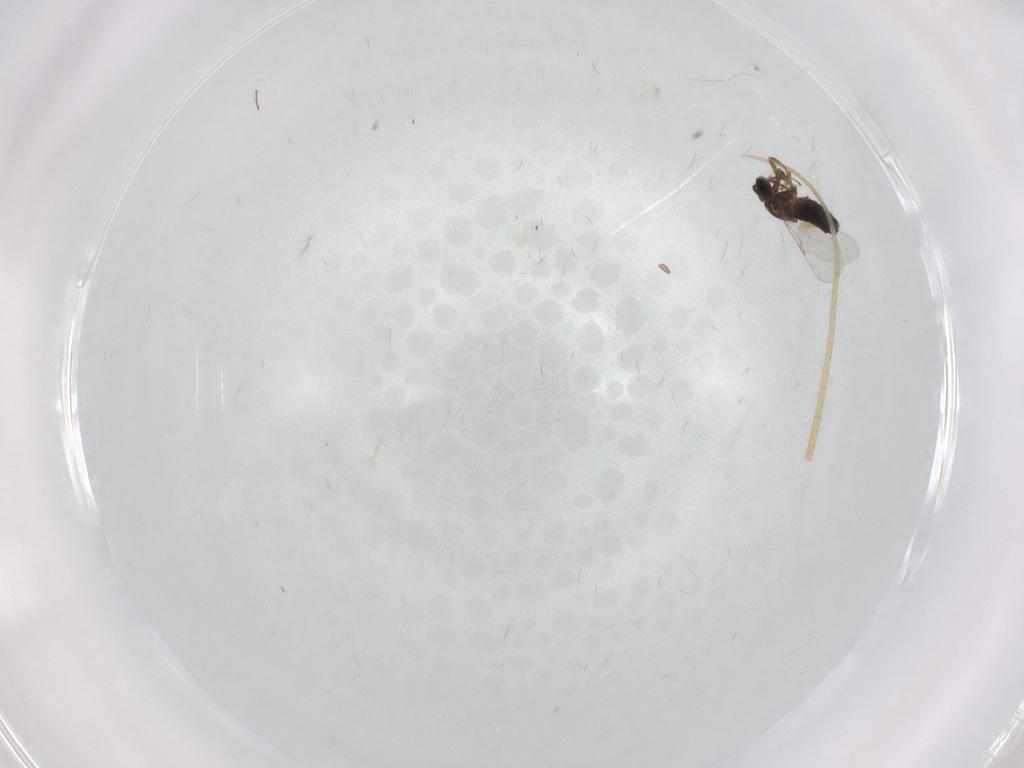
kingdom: Animalia
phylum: Arthropoda
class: Insecta
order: Diptera
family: Scatopsidae
